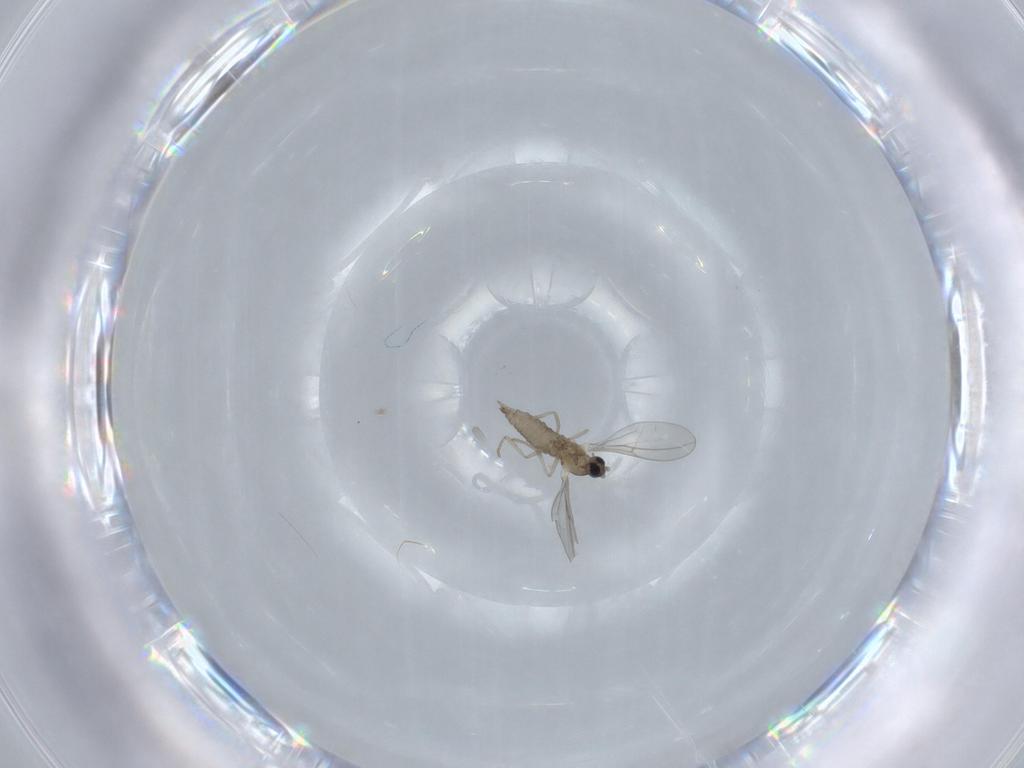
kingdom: Animalia
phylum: Arthropoda
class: Insecta
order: Diptera
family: Cecidomyiidae
